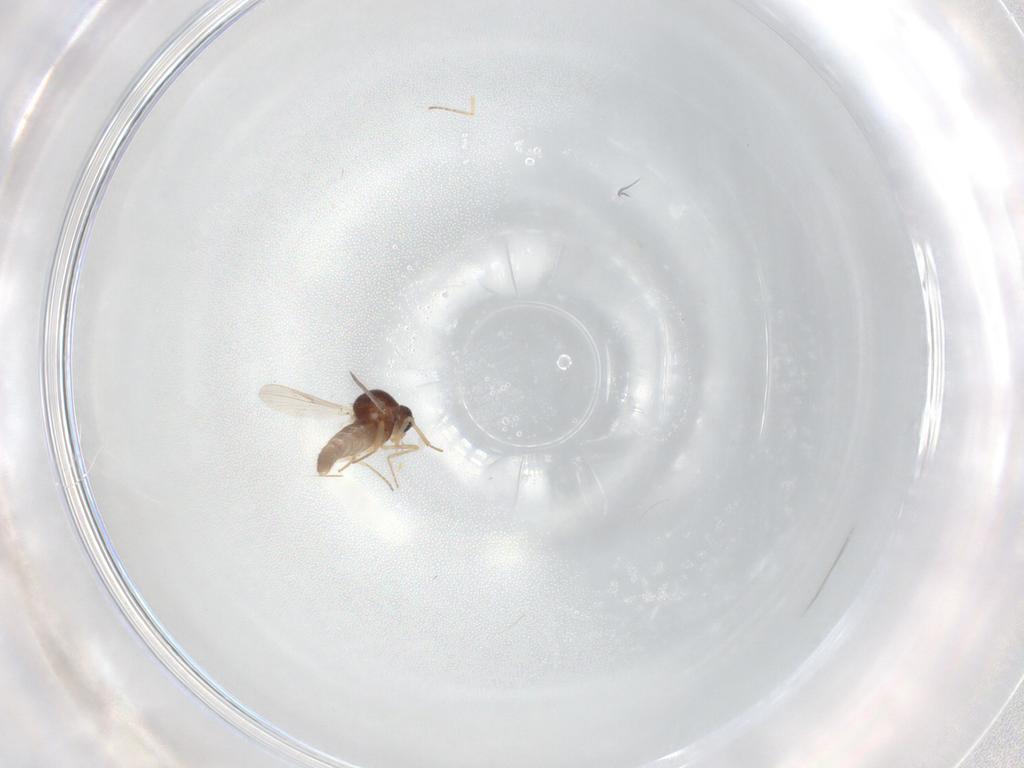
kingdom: Animalia
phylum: Arthropoda
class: Insecta
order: Diptera
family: Ceratopogonidae
